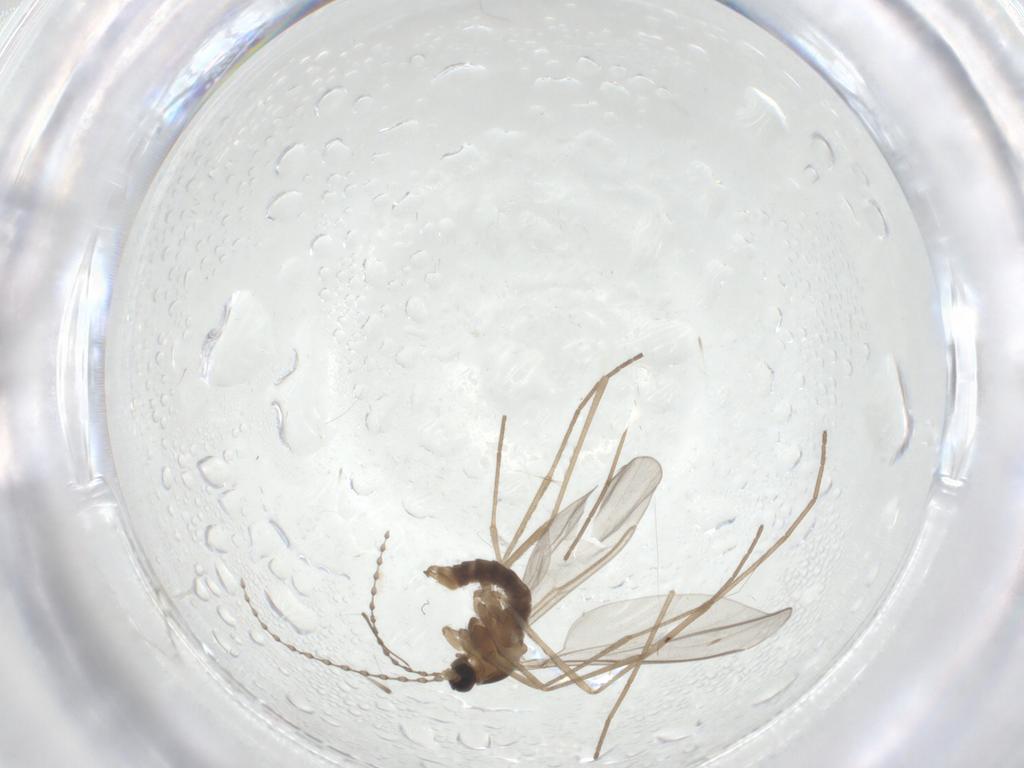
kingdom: Animalia
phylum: Arthropoda
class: Insecta
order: Diptera
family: Cecidomyiidae
